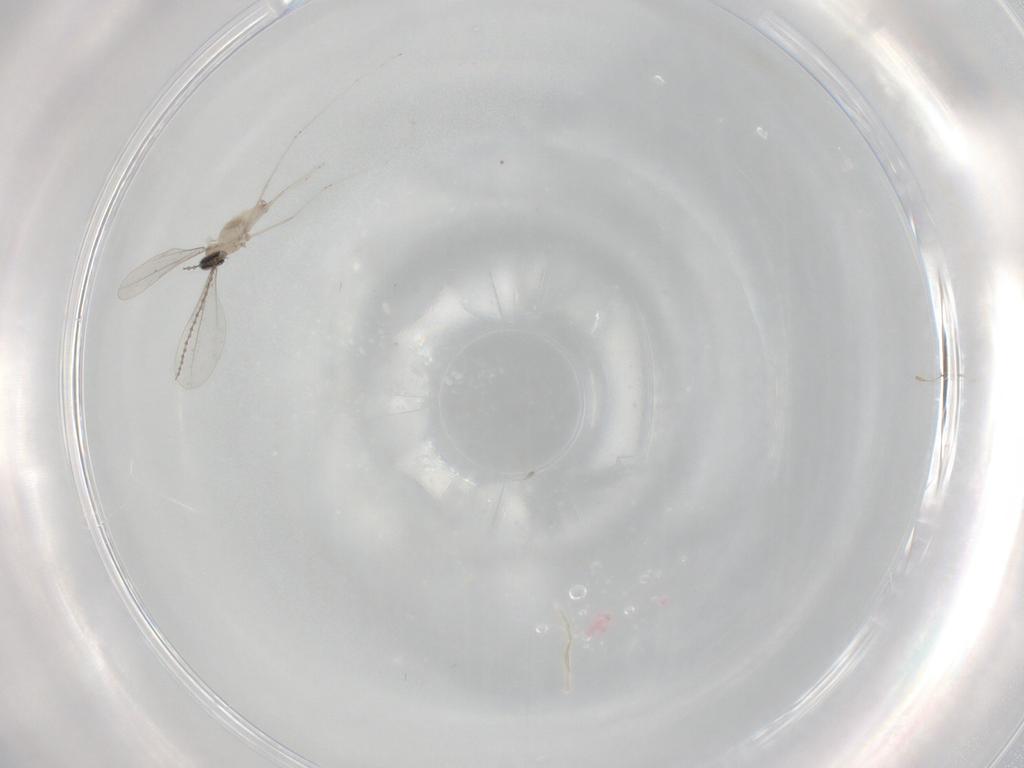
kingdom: Animalia
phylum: Arthropoda
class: Insecta
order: Diptera
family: Cecidomyiidae
